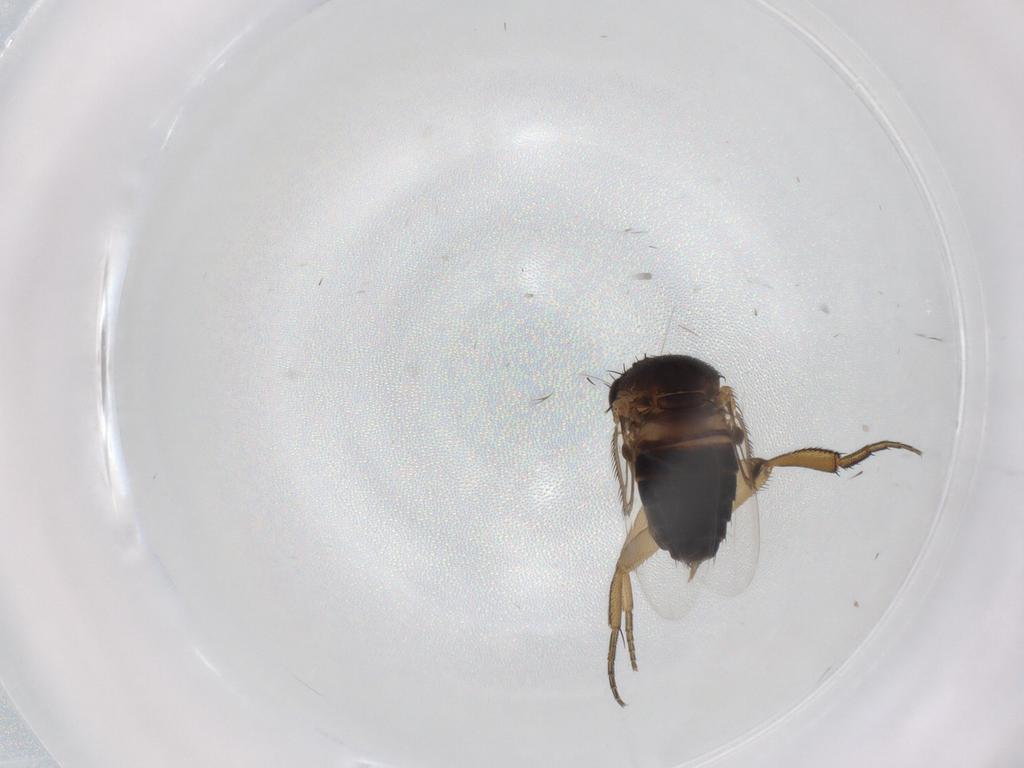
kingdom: Animalia
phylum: Arthropoda
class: Insecta
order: Diptera
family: Phoridae
